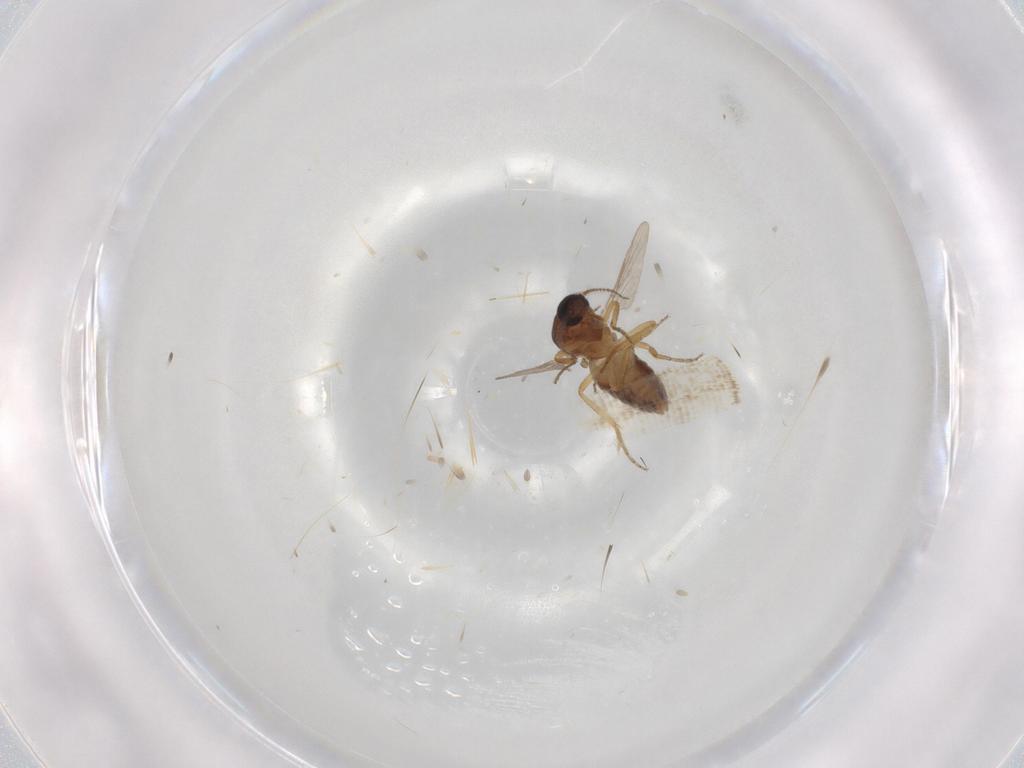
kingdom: Animalia
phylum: Arthropoda
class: Insecta
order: Diptera
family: Ceratopogonidae
